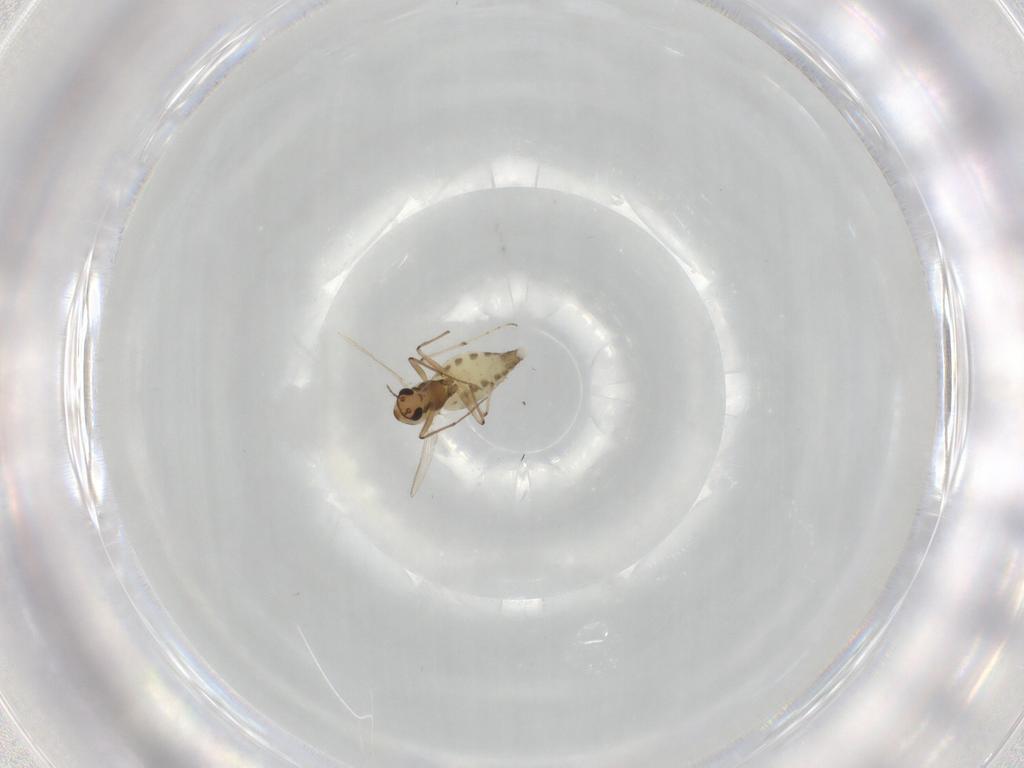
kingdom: Animalia
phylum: Arthropoda
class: Insecta
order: Diptera
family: Chironomidae
